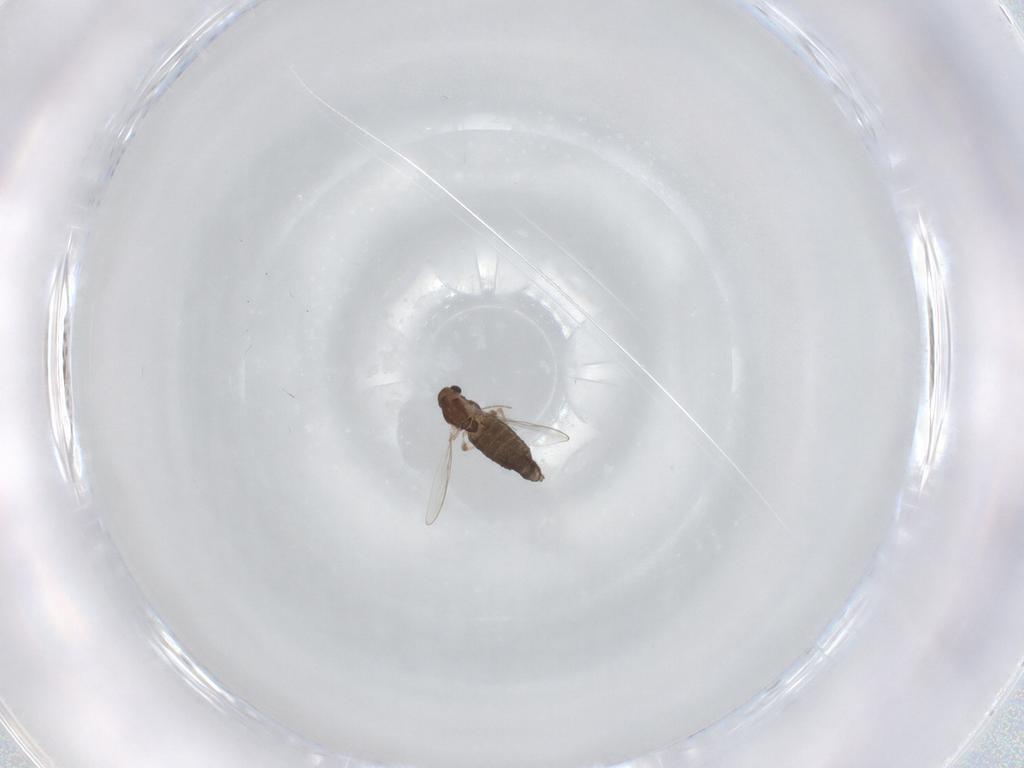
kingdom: Animalia
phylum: Arthropoda
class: Insecta
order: Diptera
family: Chironomidae
